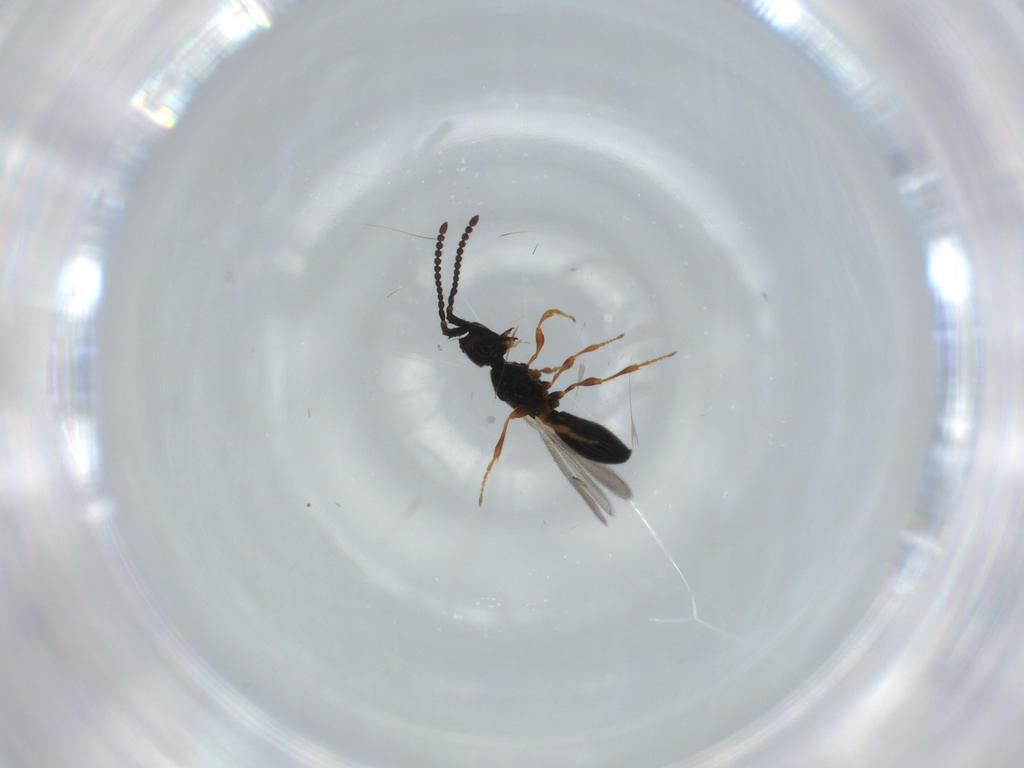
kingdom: Animalia
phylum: Arthropoda
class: Insecta
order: Hymenoptera
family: Diapriidae
